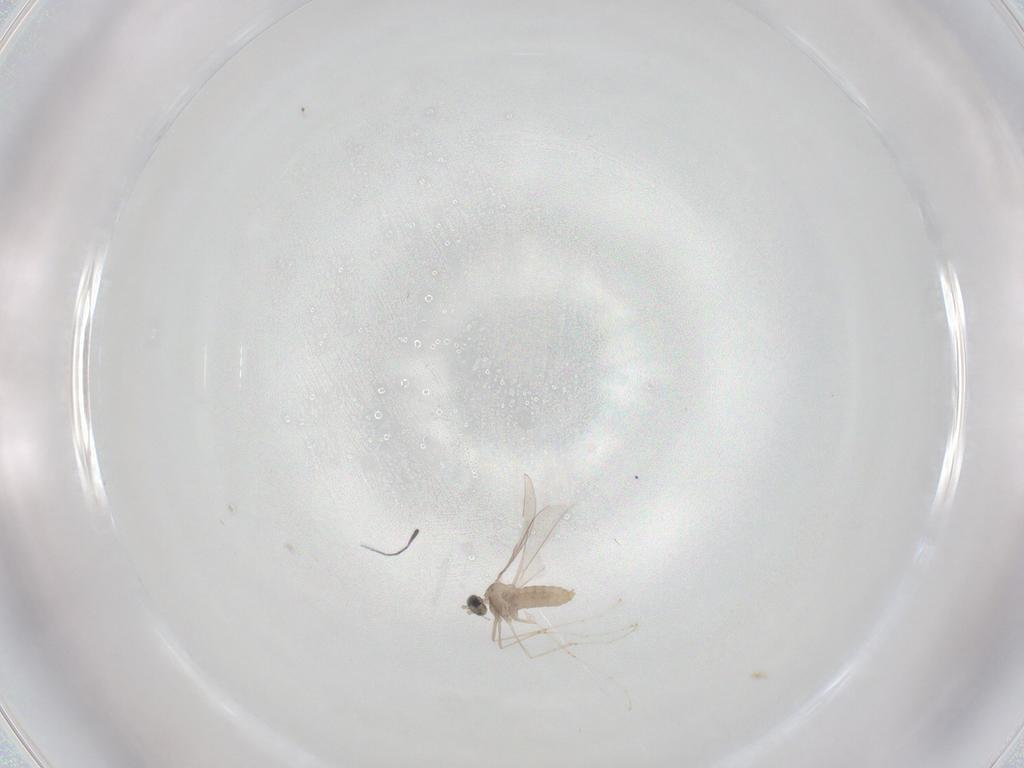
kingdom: Animalia
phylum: Arthropoda
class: Insecta
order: Diptera
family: Cecidomyiidae
